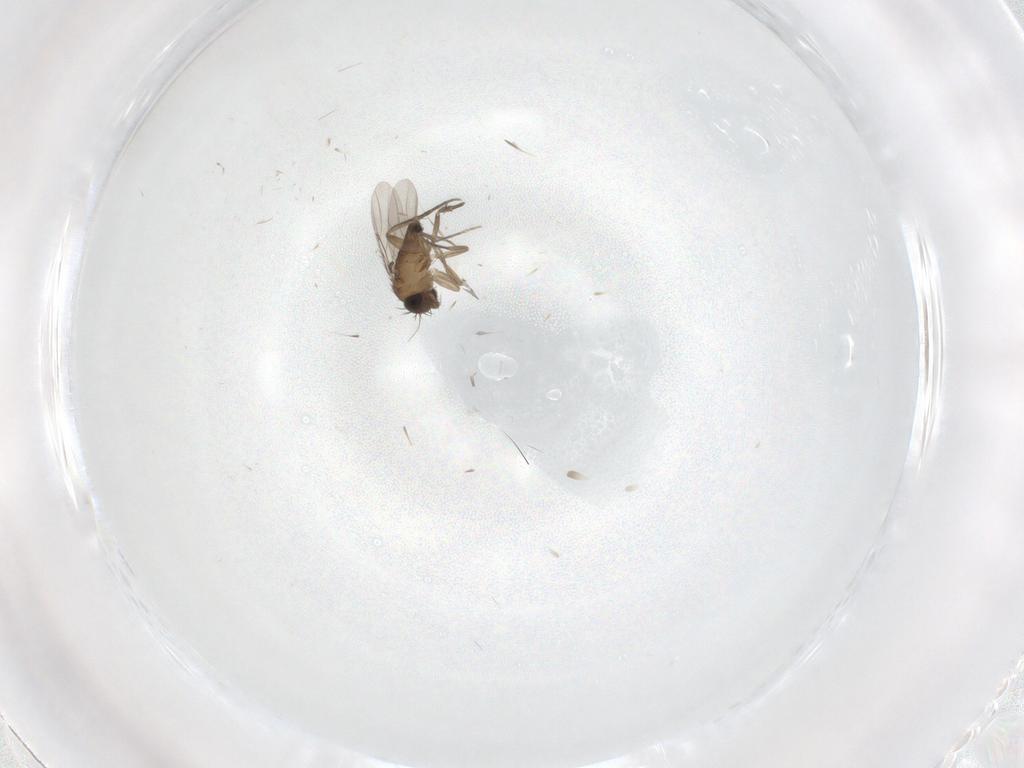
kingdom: Animalia
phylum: Arthropoda
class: Insecta
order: Diptera
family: Phoridae
